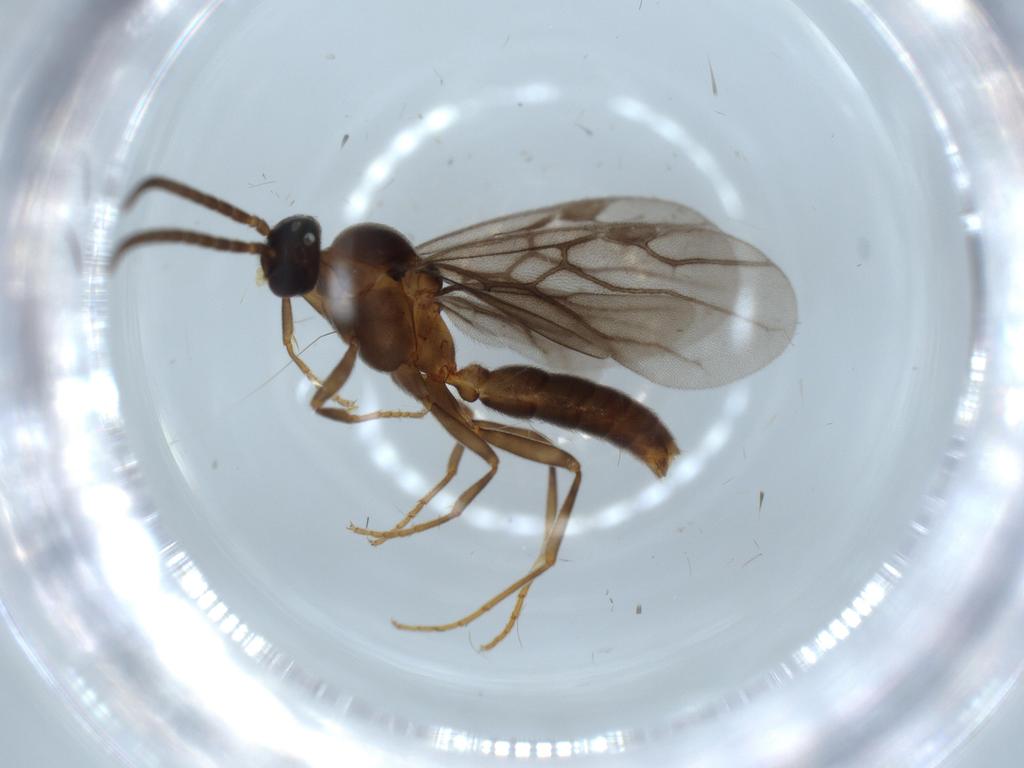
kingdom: Animalia
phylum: Arthropoda
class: Insecta
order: Hymenoptera
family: Formicidae
